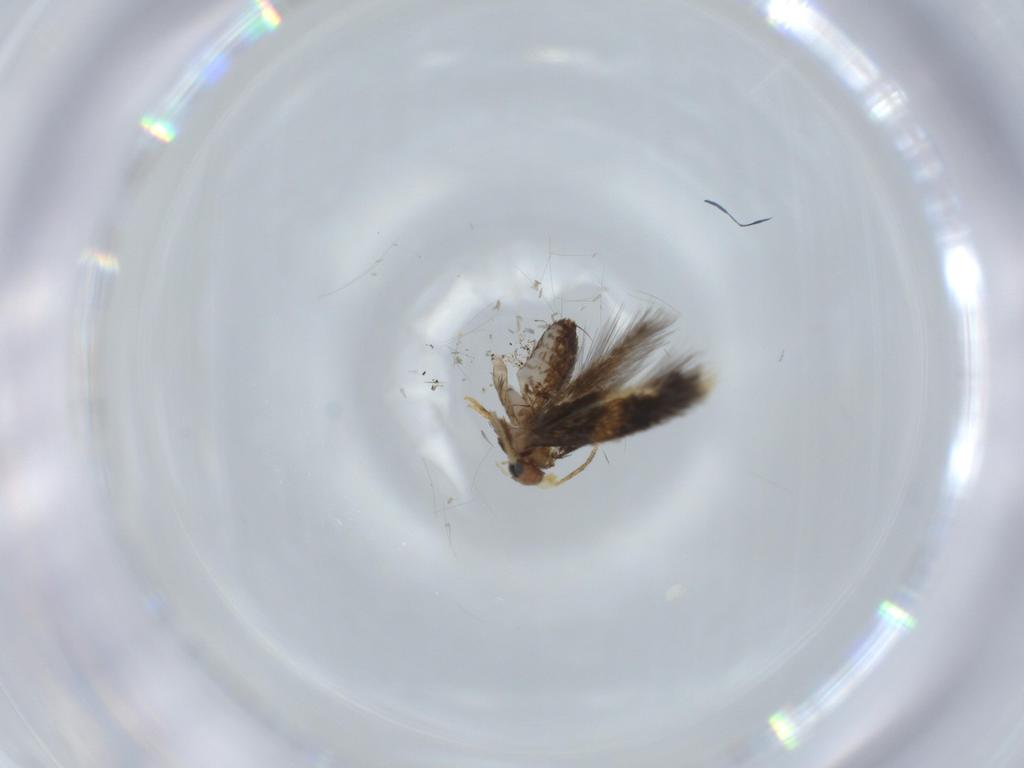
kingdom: Animalia
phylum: Arthropoda
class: Insecta
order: Lepidoptera
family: Nepticulidae
